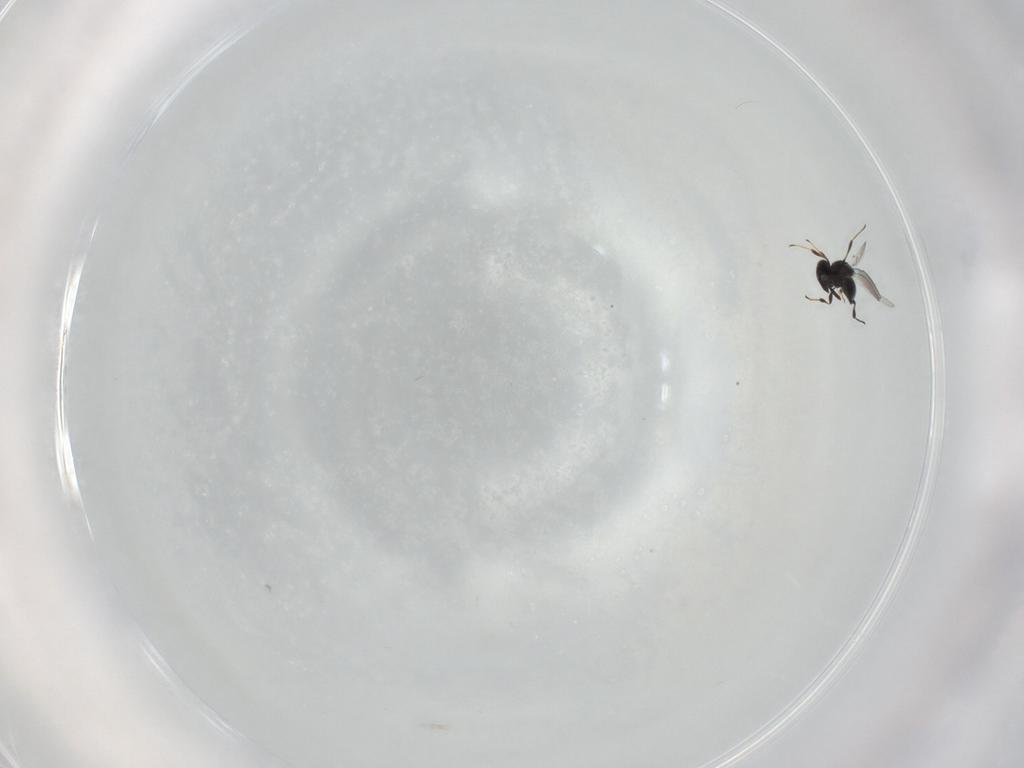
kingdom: Animalia
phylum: Arthropoda
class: Insecta
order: Hymenoptera
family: Platygastridae
